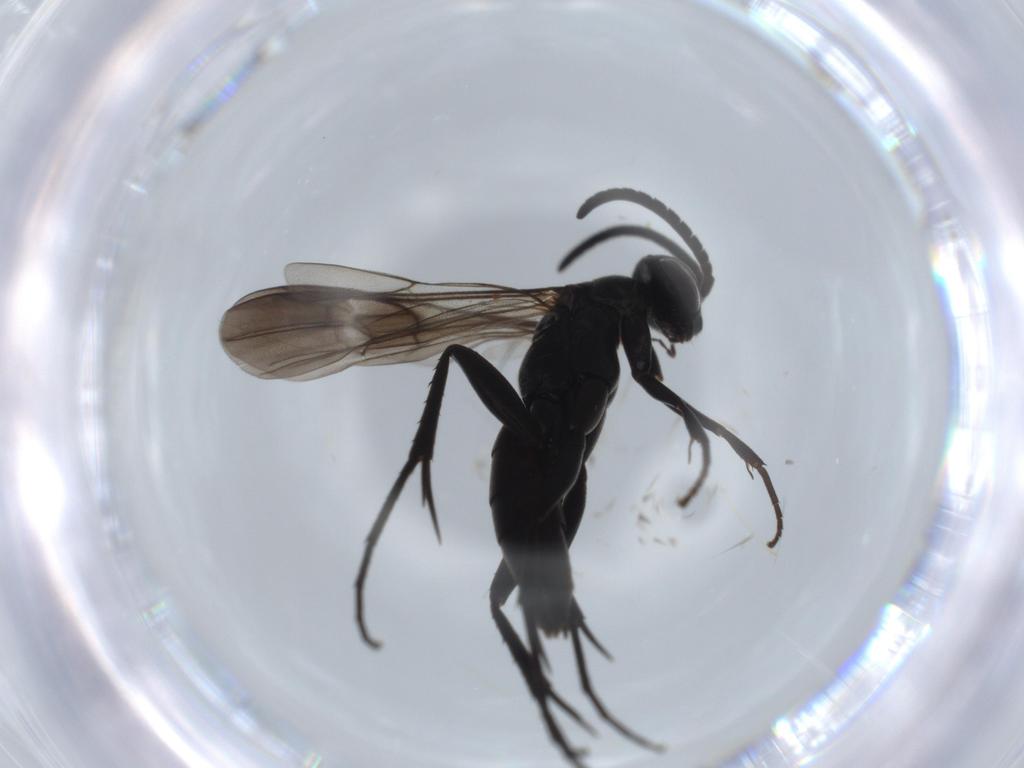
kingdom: Animalia
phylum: Arthropoda
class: Insecta
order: Hymenoptera
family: Pompilidae
